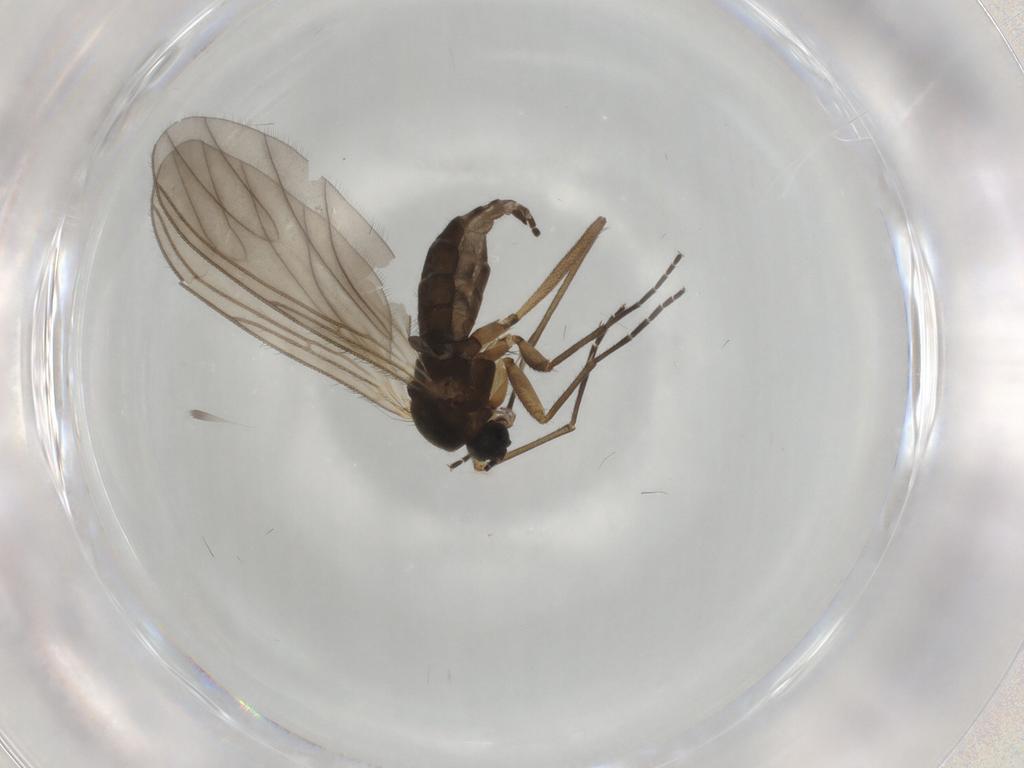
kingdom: Animalia
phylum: Arthropoda
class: Insecta
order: Diptera
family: Sciaridae
